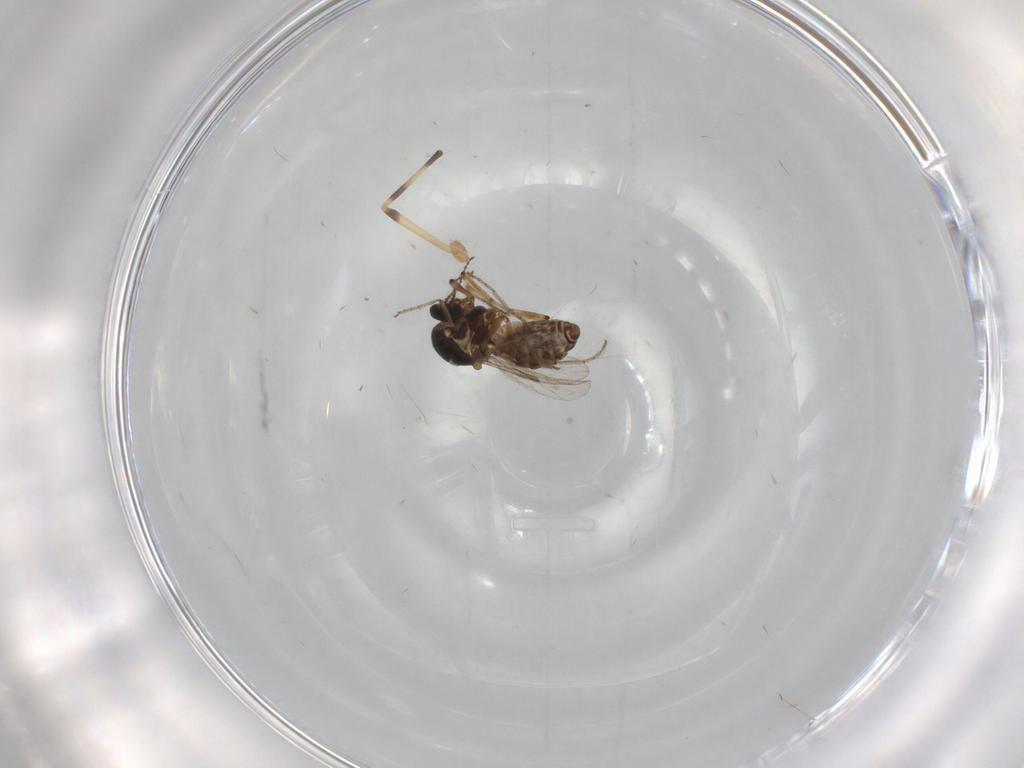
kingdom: Animalia
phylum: Arthropoda
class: Insecta
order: Diptera
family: Ceratopogonidae
